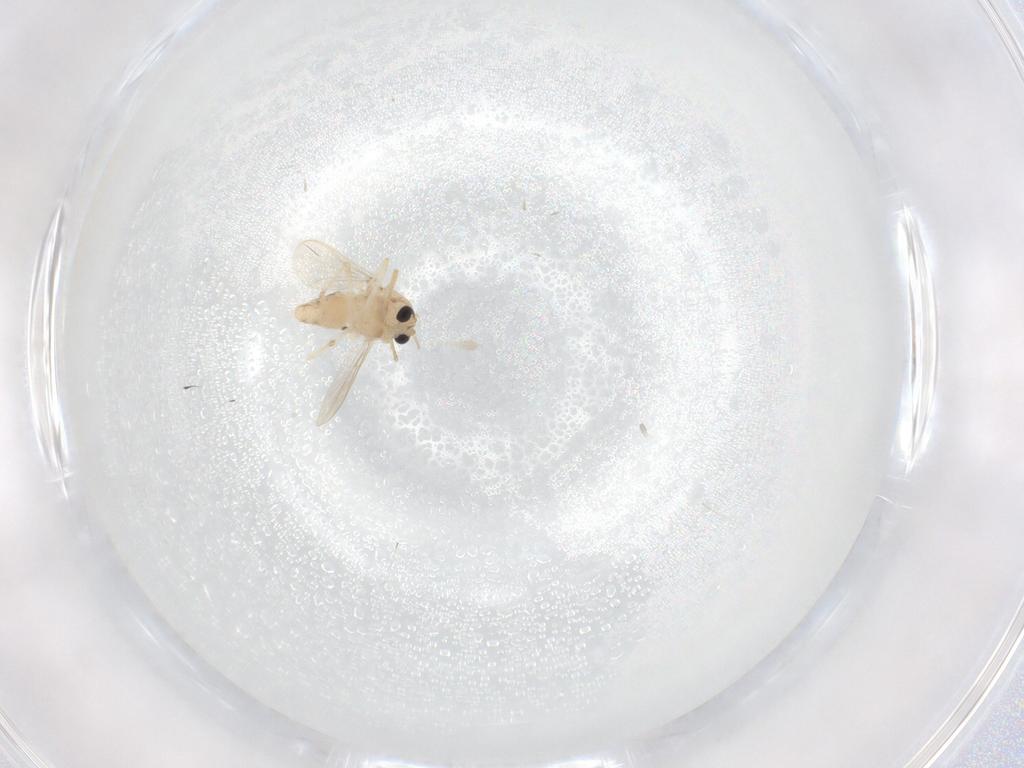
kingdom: Animalia
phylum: Arthropoda
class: Insecta
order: Diptera
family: Chironomidae
